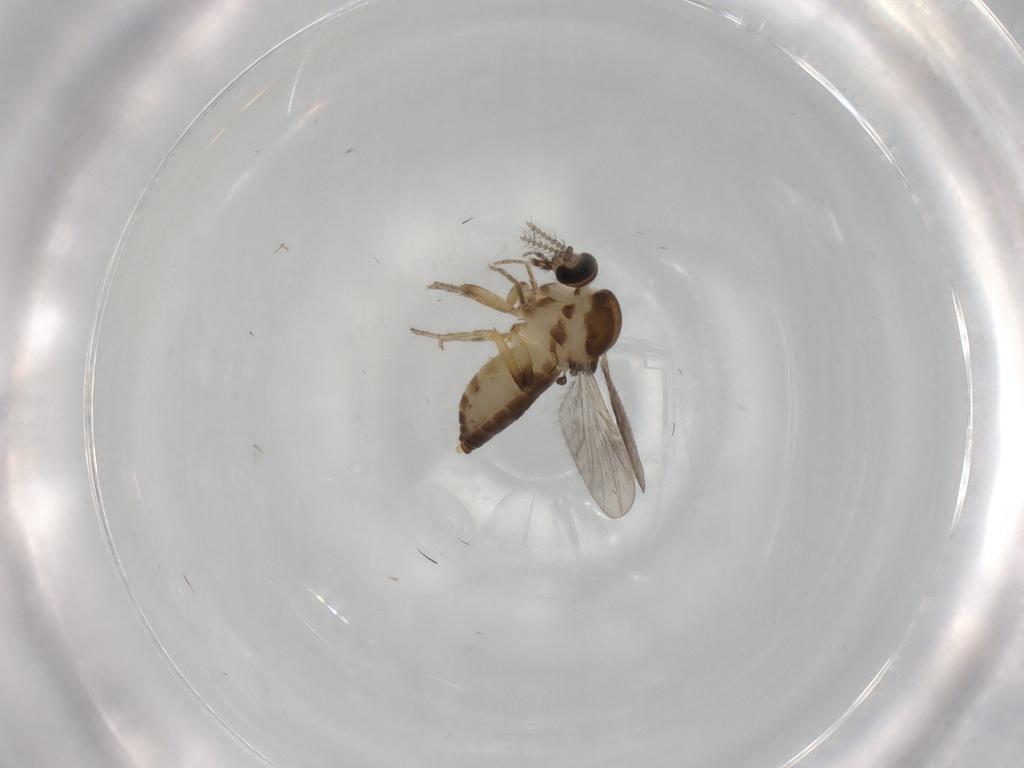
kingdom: Animalia
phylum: Arthropoda
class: Insecta
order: Diptera
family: Ceratopogonidae
